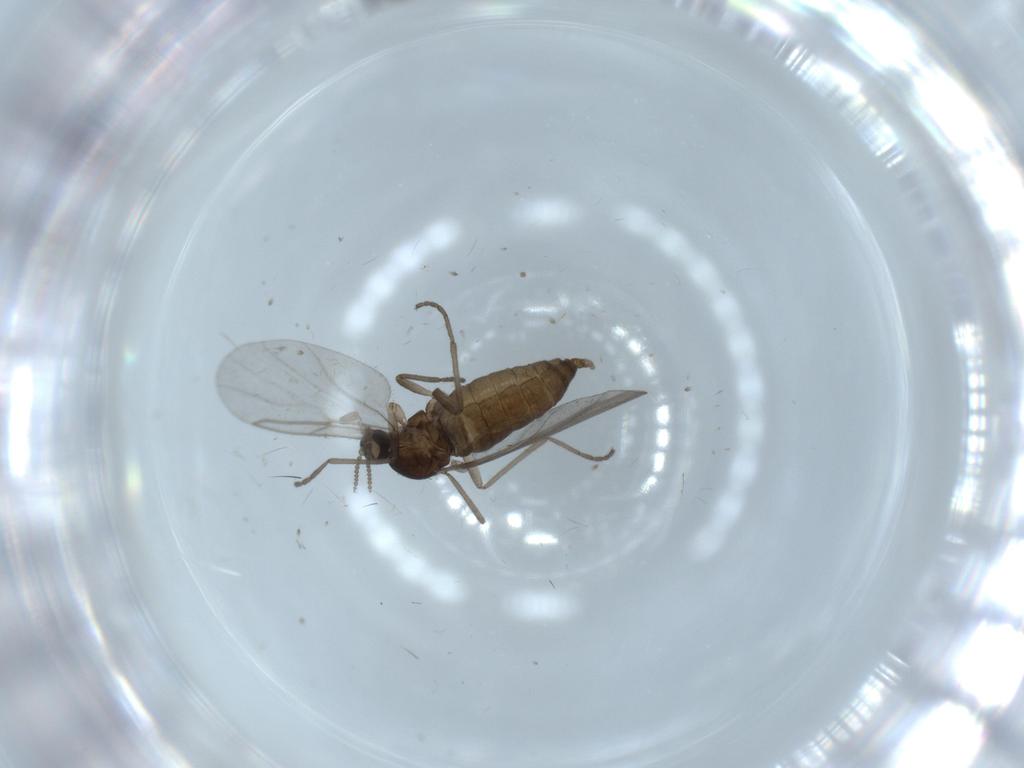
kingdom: Animalia
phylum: Arthropoda
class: Insecta
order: Diptera
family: Cecidomyiidae
